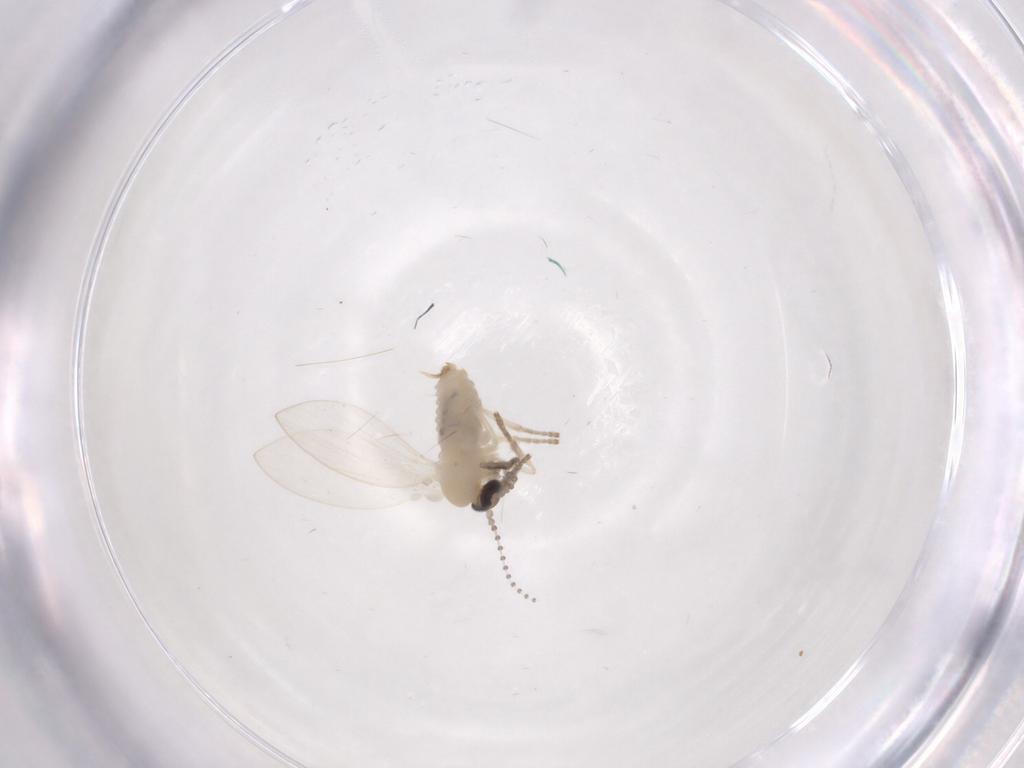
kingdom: Animalia
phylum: Arthropoda
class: Insecta
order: Diptera
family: Psychodidae
